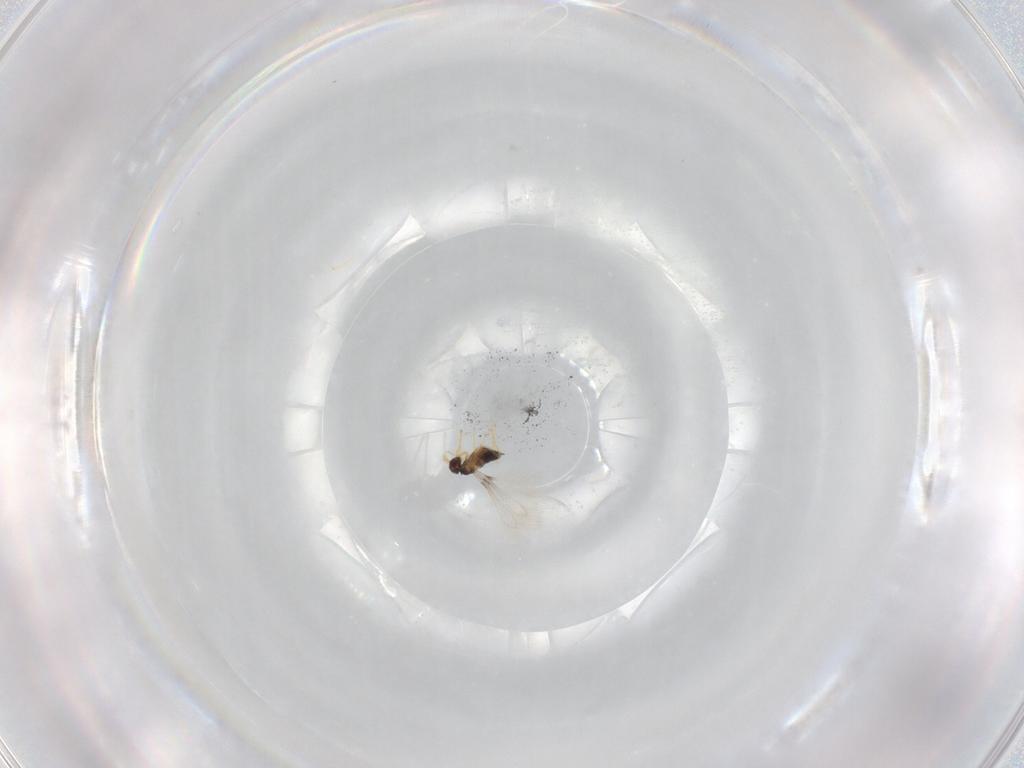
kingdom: Animalia
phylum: Arthropoda
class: Insecta
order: Hymenoptera
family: Mymaridae
